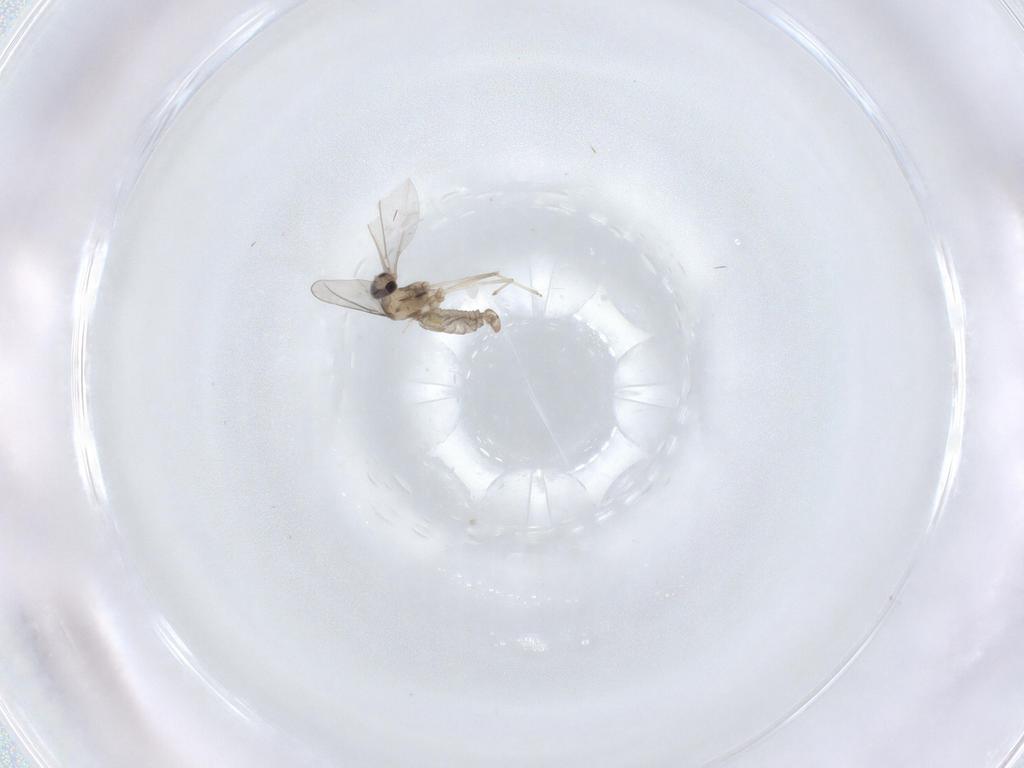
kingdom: Animalia
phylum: Arthropoda
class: Insecta
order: Diptera
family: Cecidomyiidae
